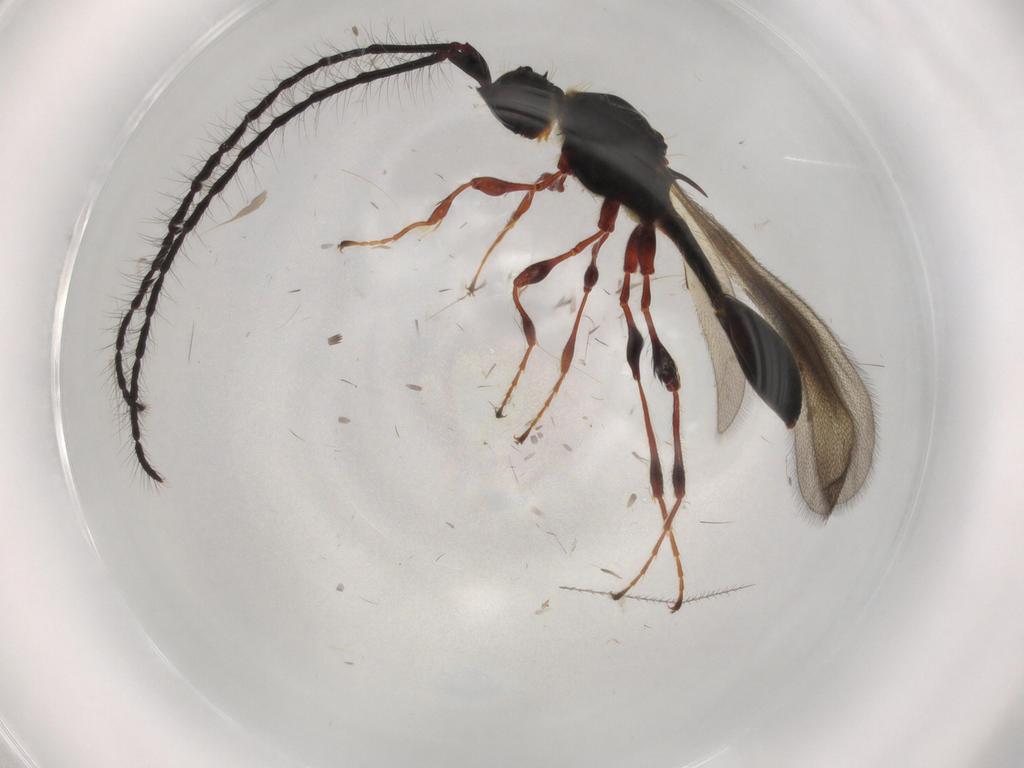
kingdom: Animalia
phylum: Arthropoda
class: Insecta
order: Hymenoptera
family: Diapriidae
